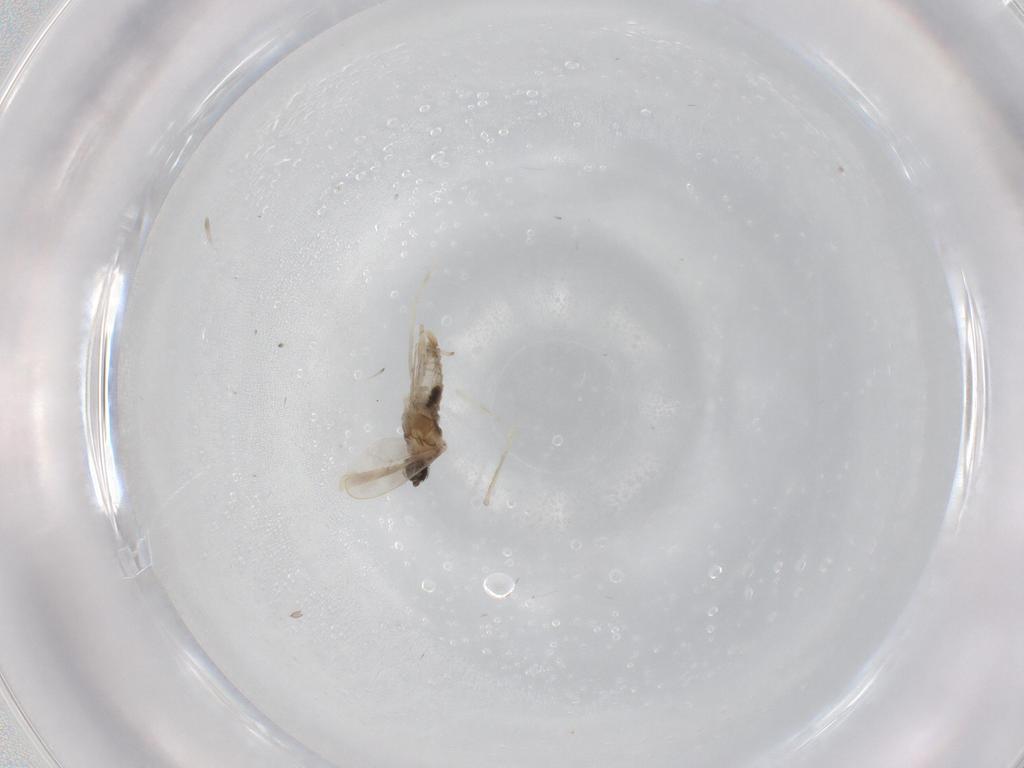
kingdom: Animalia
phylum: Arthropoda
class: Insecta
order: Diptera
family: Cecidomyiidae
